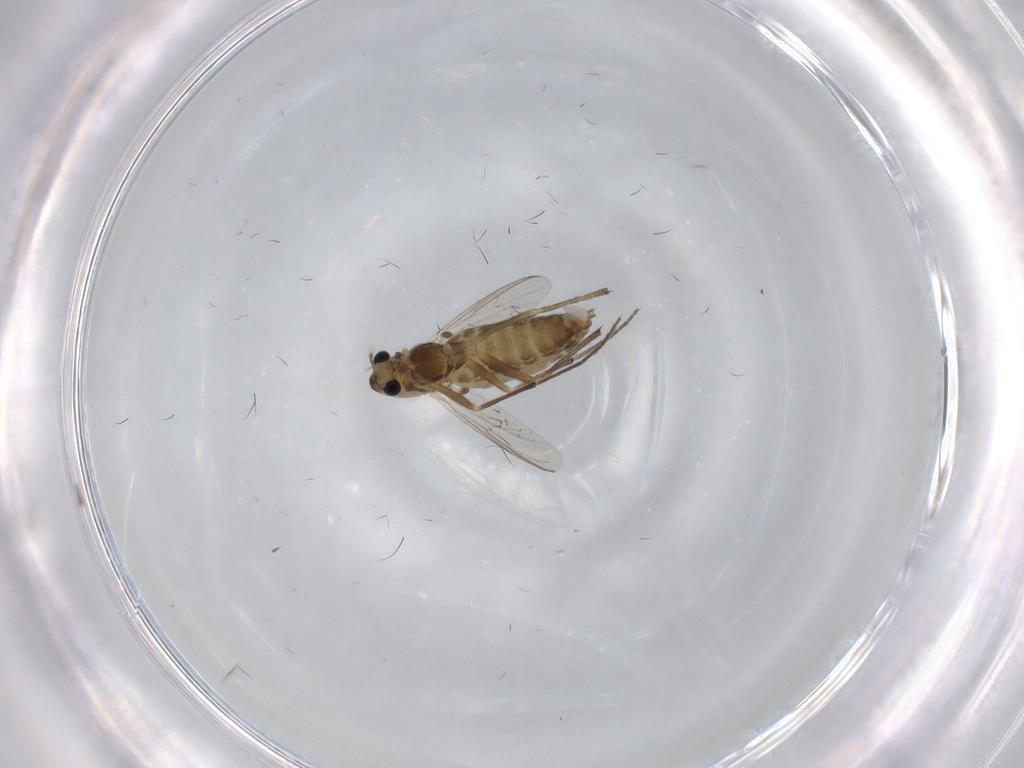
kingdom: Animalia
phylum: Arthropoda
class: Insecta
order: Diptera
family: Chironomidae
